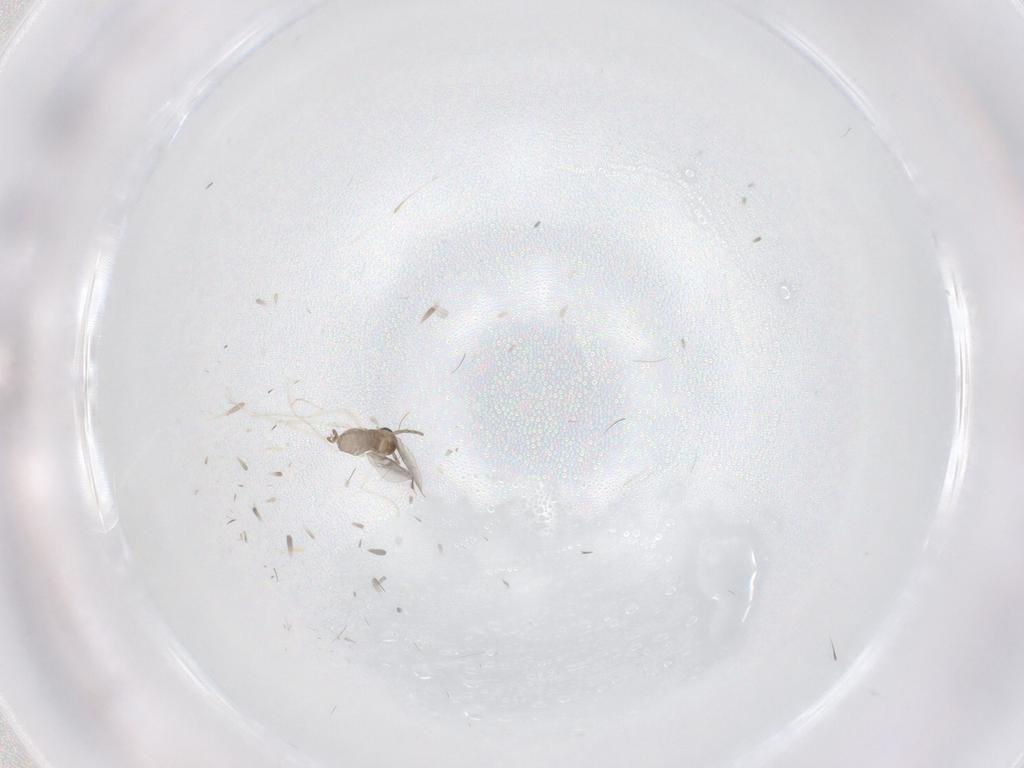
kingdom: Animalia
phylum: Arthropoda
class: Insecta
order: Diptera
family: Cecidomyiidae
